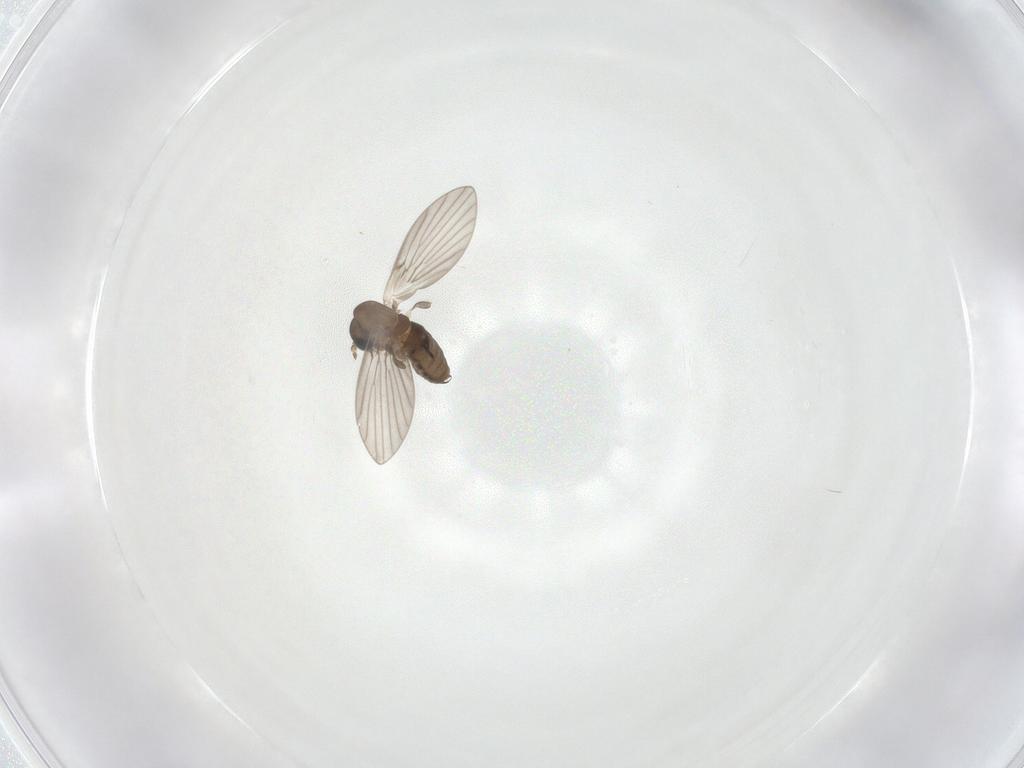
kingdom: Animalia
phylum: Arthropoda
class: Insecta
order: Diptera
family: Psychodidae
